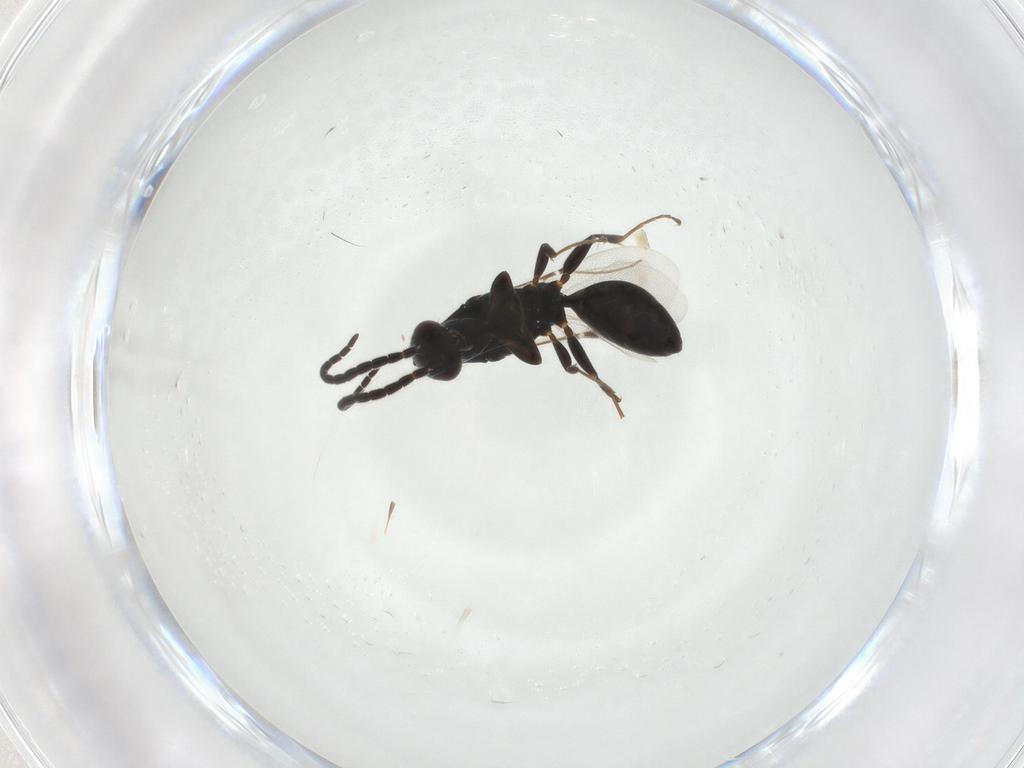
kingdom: Animalia
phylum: Arthropoda
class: Insecta
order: Hymenoptera
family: Bethylidae
